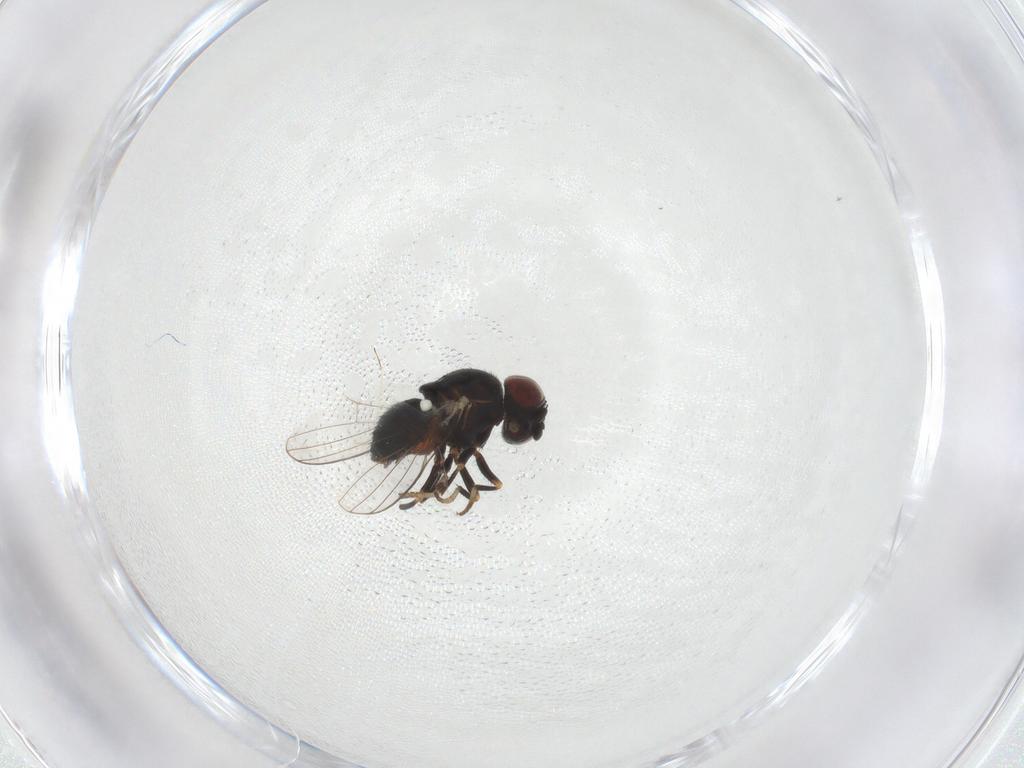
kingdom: Animalia
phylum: Arthropoda
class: Insecta
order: Diptera
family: Chamaemyiidae
